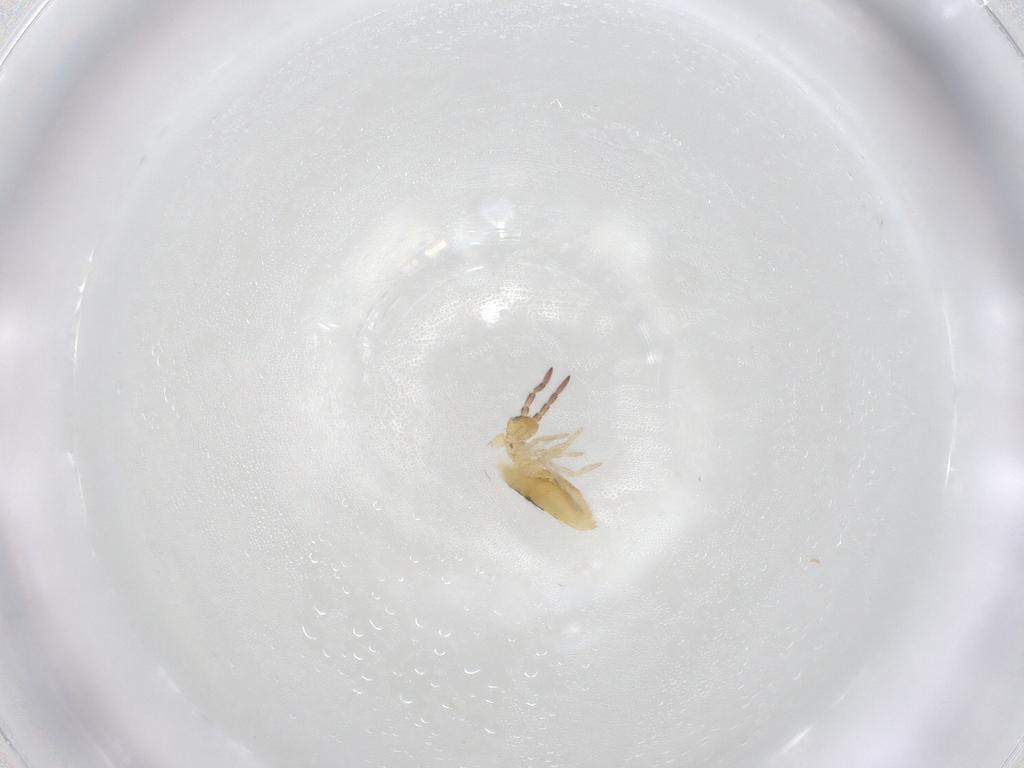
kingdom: Animalia
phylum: Arthropoda
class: Collembola
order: Entomobryomorpha
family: Entomobryidae
